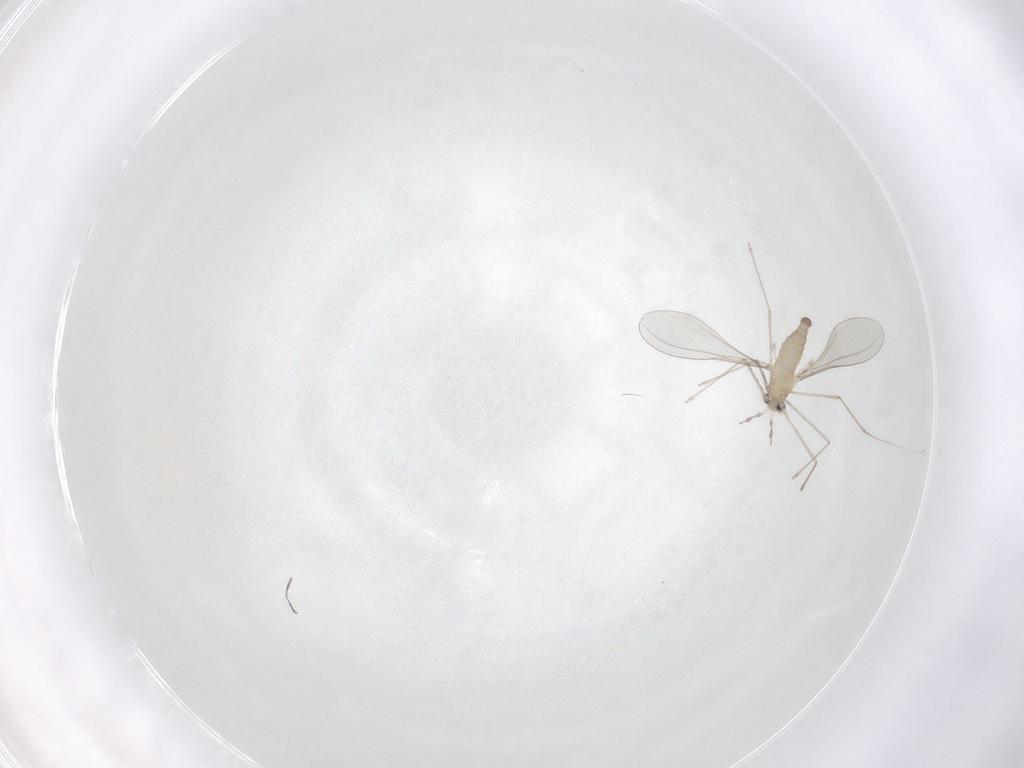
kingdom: Animalia
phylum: Arthropoda
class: Insecta
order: Diptera
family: Cecidomyiidae
